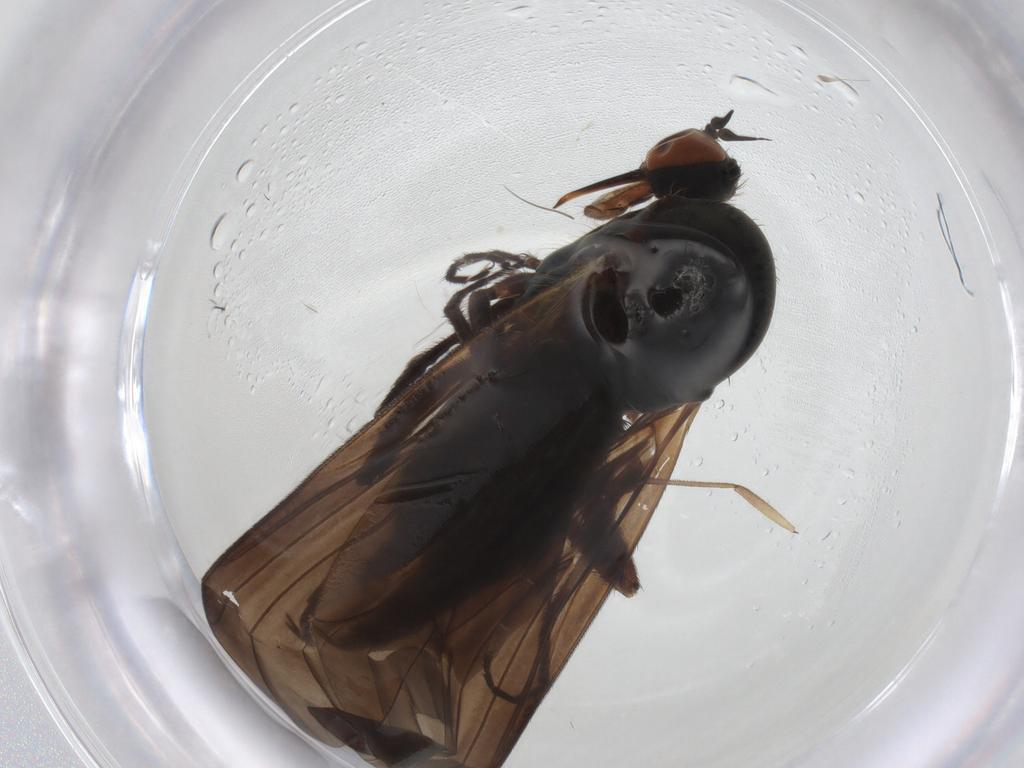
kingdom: Animalia
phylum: Arthropoda
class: Insecta
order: Diptera
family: Empididae
